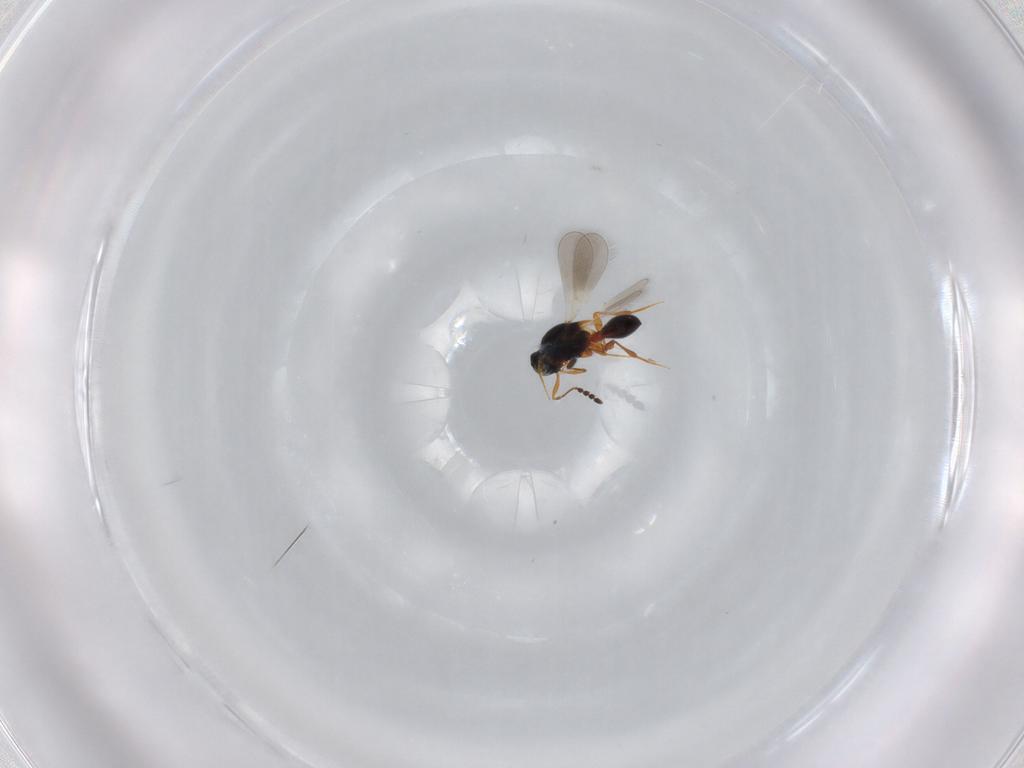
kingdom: Animalia
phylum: Arthropoda
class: Insecta
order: Hymenoptera
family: Platygastridae
